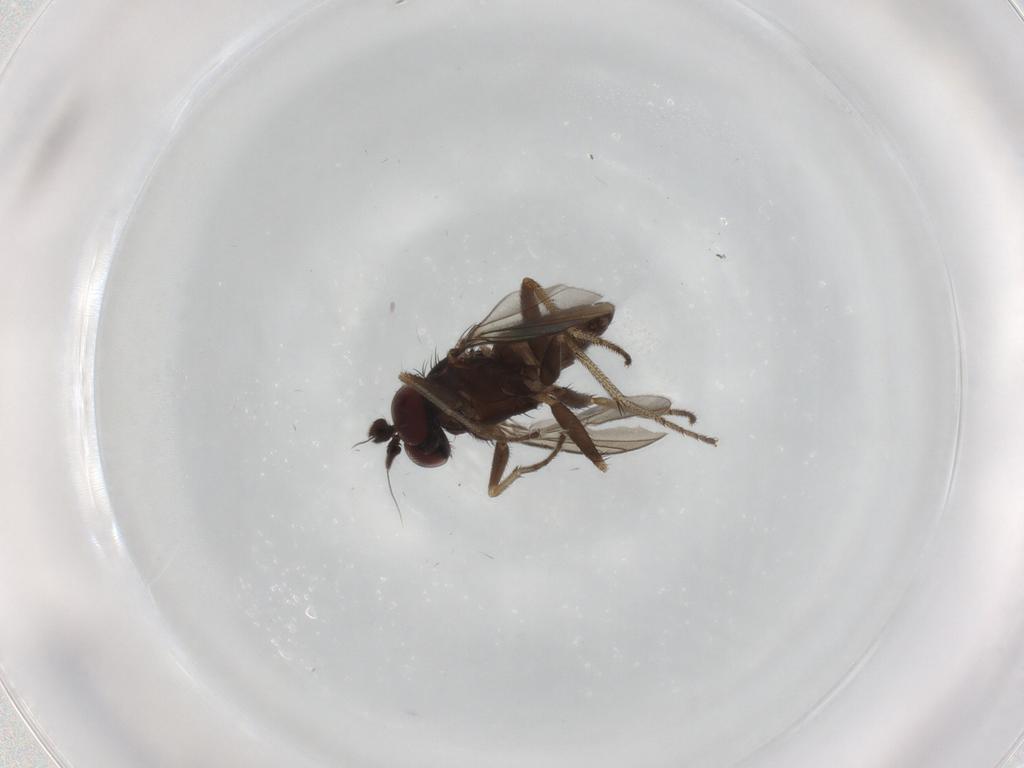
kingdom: Animalia
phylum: Arthropoda
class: Insecta
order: Diptera
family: Dolichopodidae
